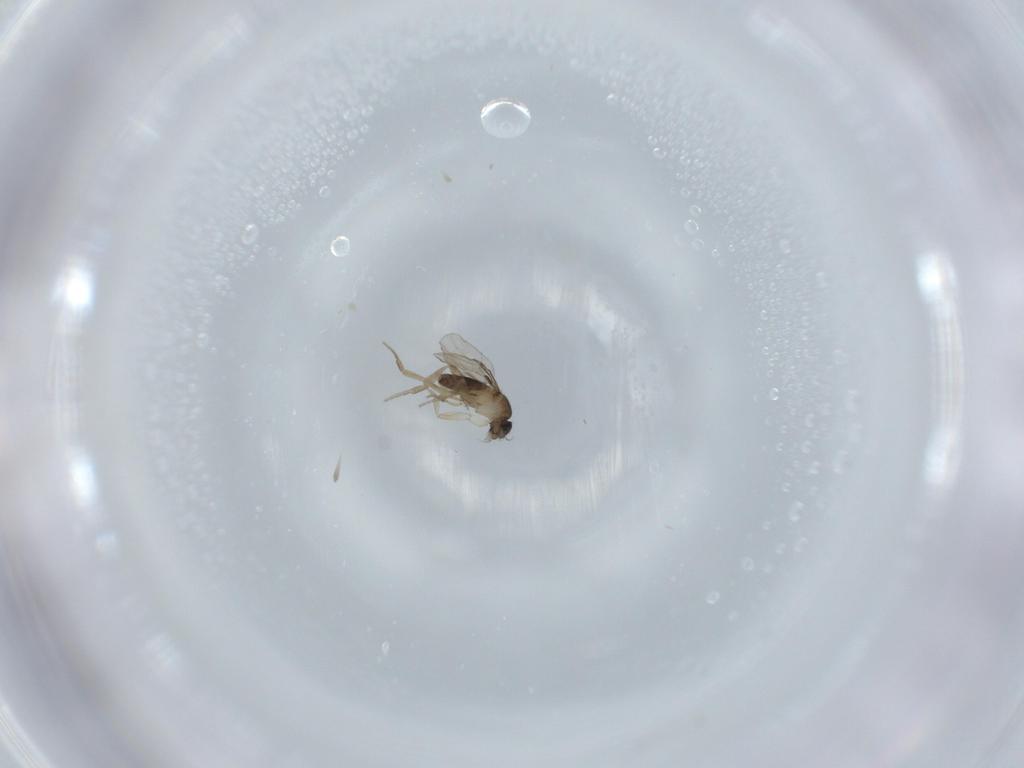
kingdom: Animalia
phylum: Arthropoda
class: Insecta
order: Diptera
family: Phoridae
